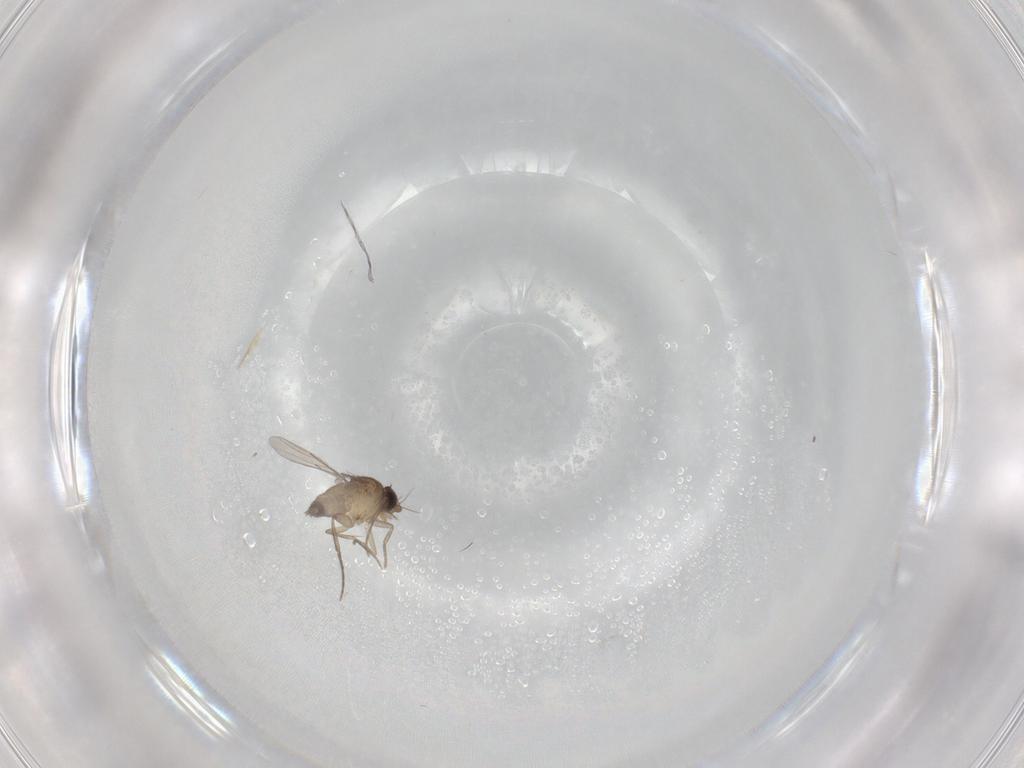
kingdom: Animalia
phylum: Arthropoda
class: Insecta
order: Diptera
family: Phoridae
